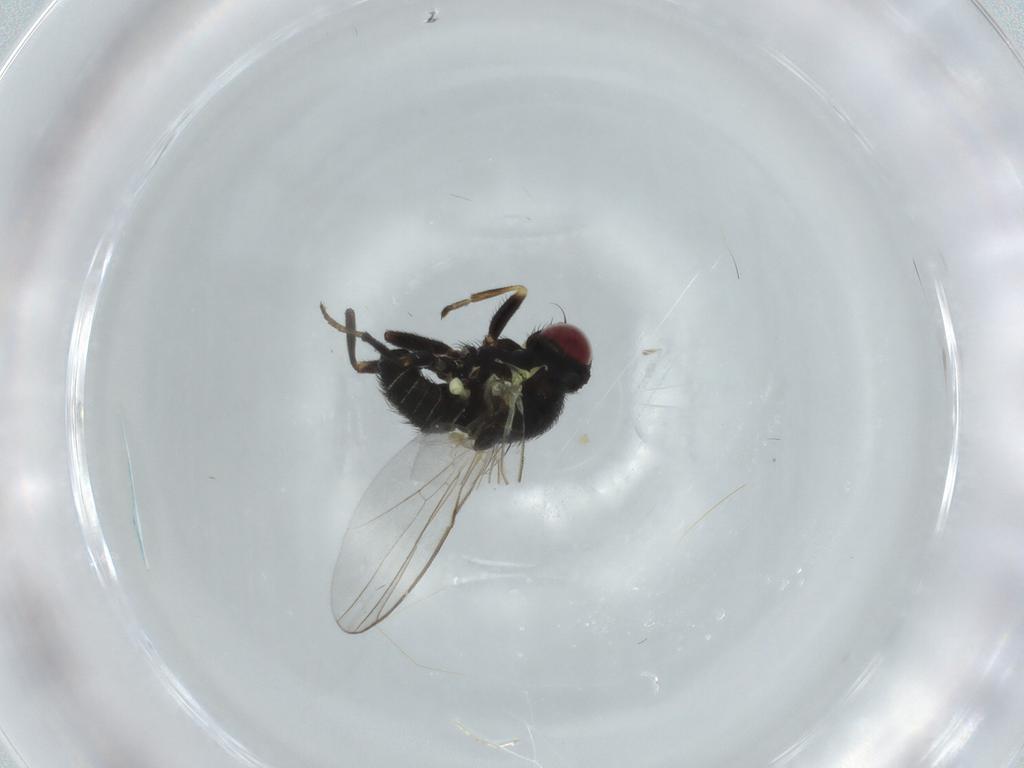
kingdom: Animalia
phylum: Arthropoda
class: Insecta
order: Diptera
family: Agromyzidae
